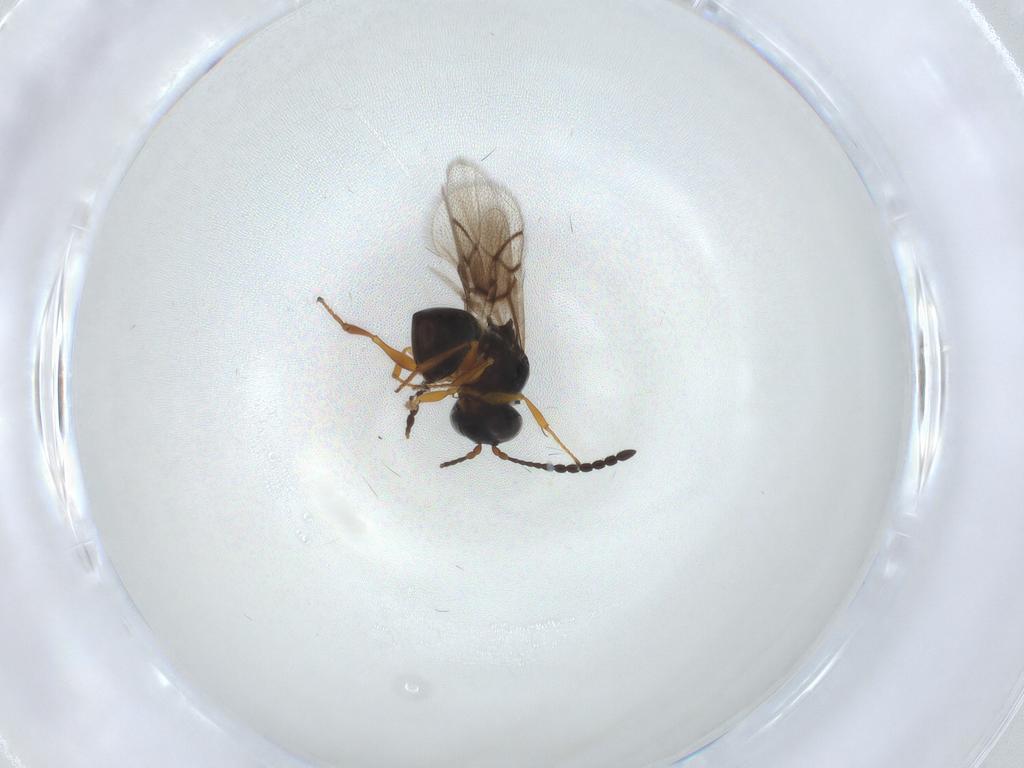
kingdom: Animalia
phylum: Arthropoda
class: Insecta
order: Hymenoptera
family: Figitidae
